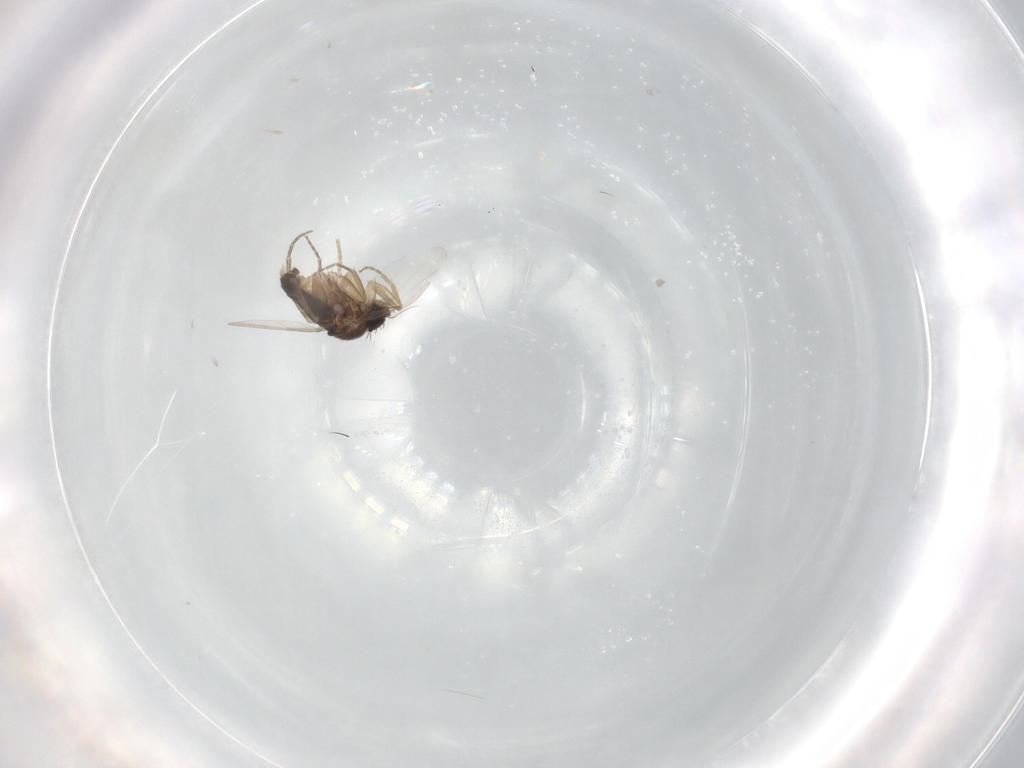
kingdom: Animalia
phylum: Arthropoda
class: Insecta
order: Diptera
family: Phoridae
